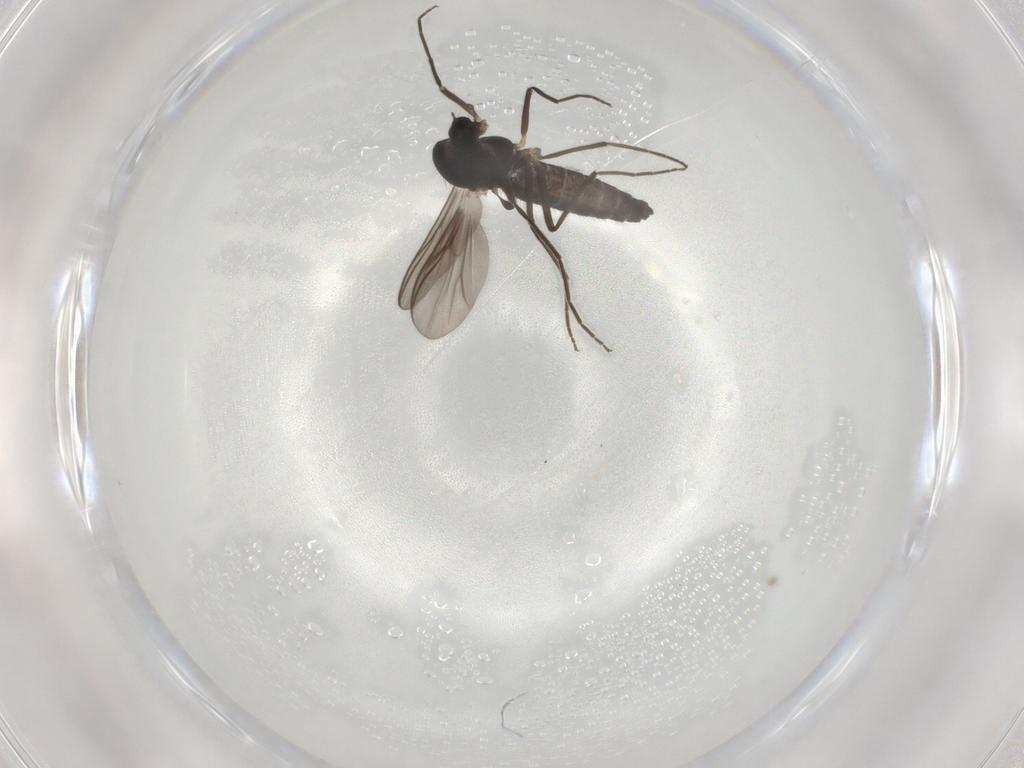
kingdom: Animalia
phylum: Arthropoda
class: Insecta
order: Diptera
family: Chironomidae
